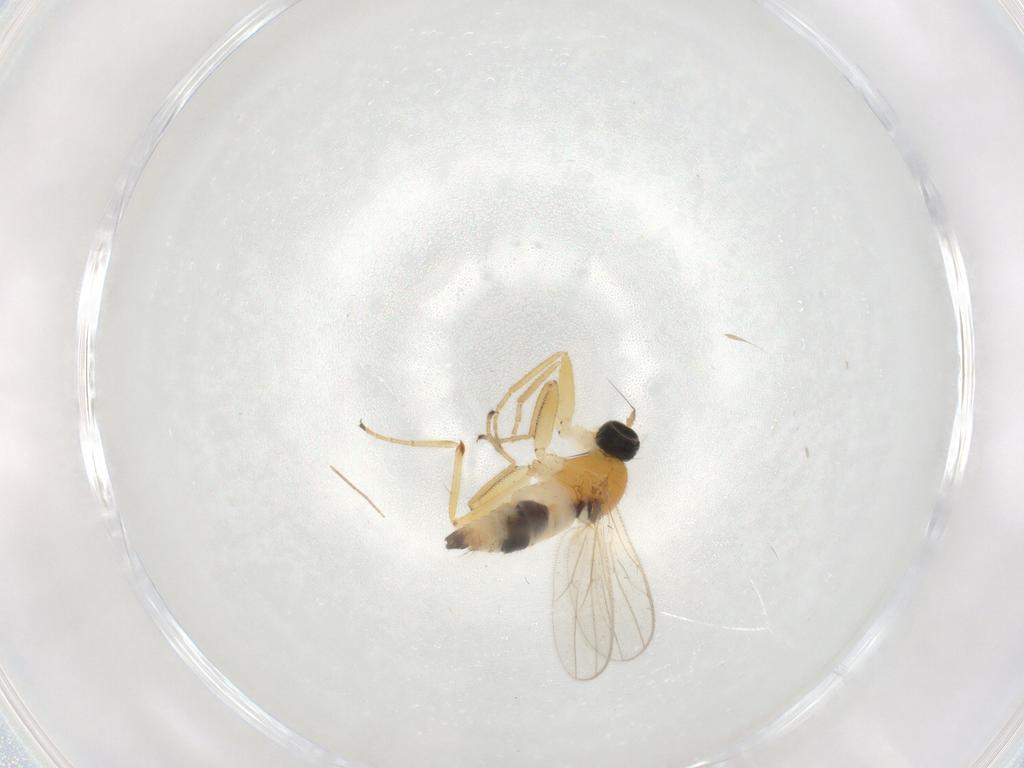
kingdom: Animalia
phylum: Arthropoda
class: Insecta
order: Diptera
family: Hybotidae
